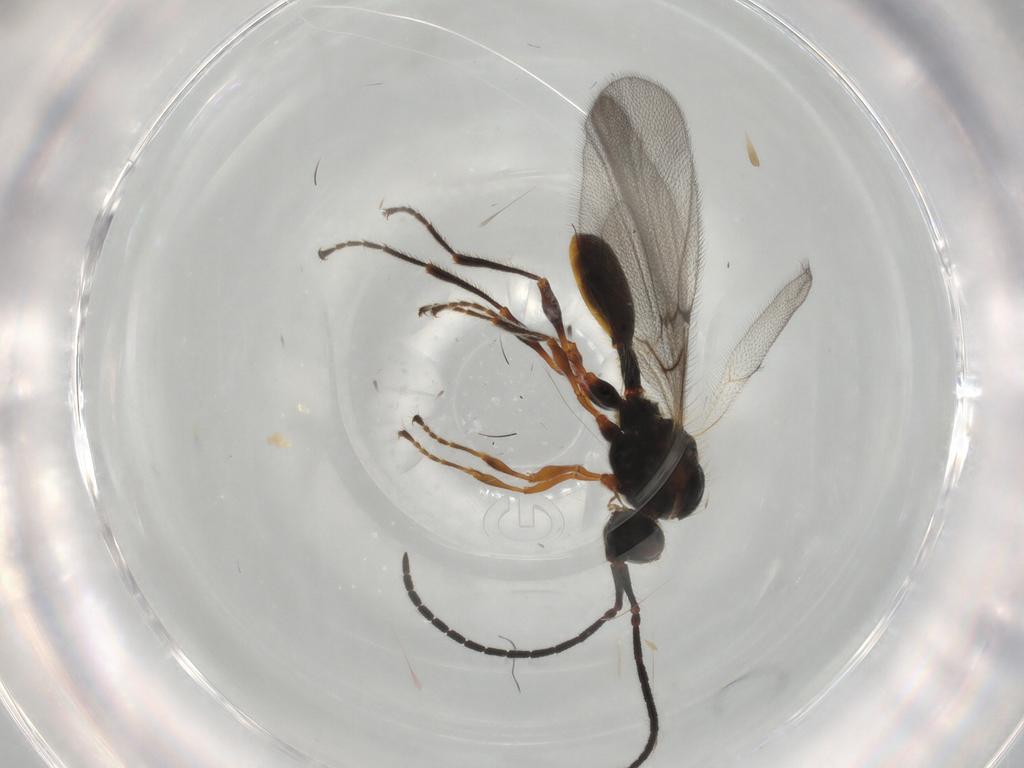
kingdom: Animalia
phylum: Arthropoda
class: Insecta
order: Hymenoptera
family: Diapriidae
